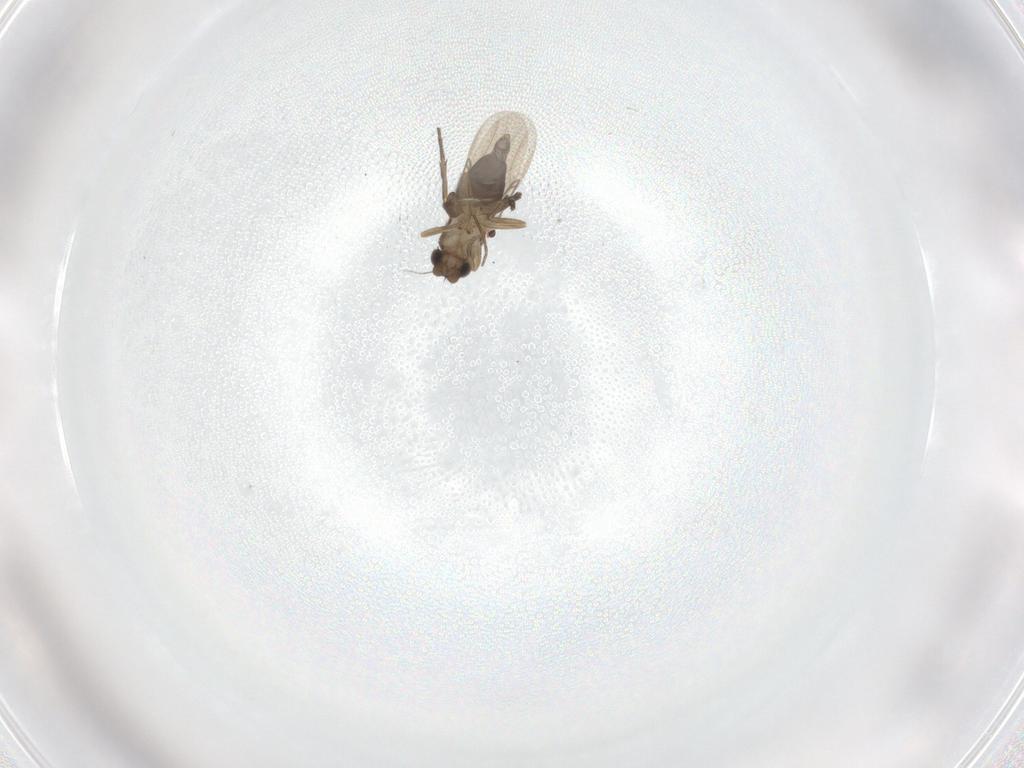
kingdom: Animalia
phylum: Arthropoda
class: Insecta
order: Diptera
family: Phoridae
